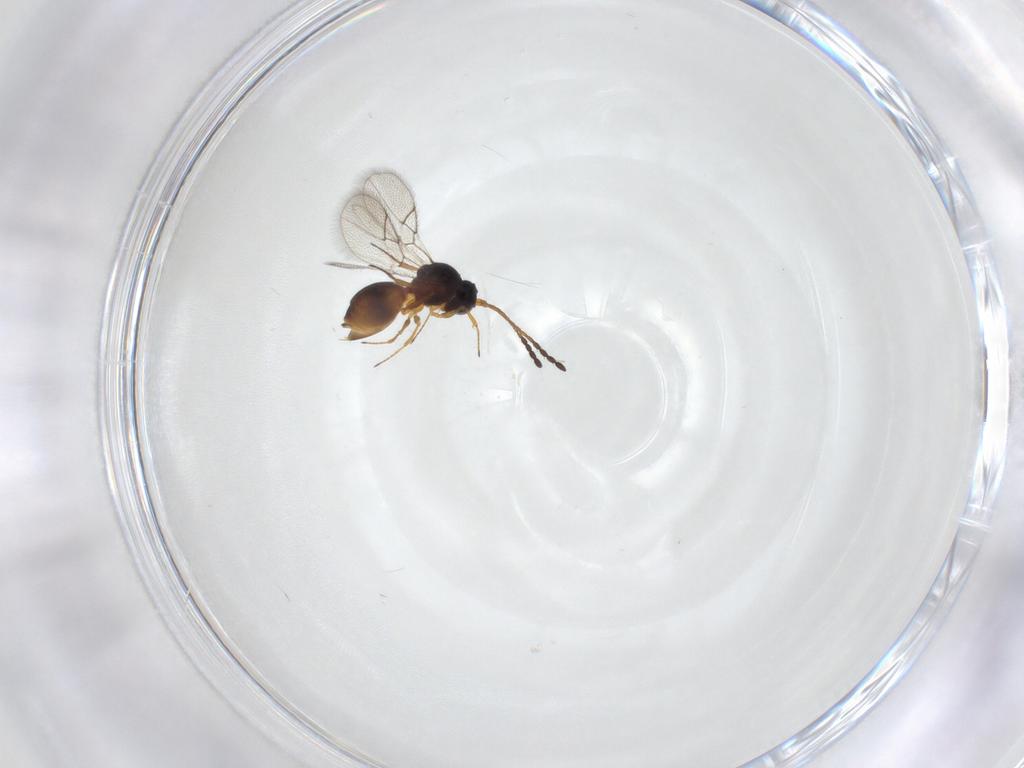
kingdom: Animalia
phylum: Arthropoda
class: Insecta
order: Hymenoptera
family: Figitidae
